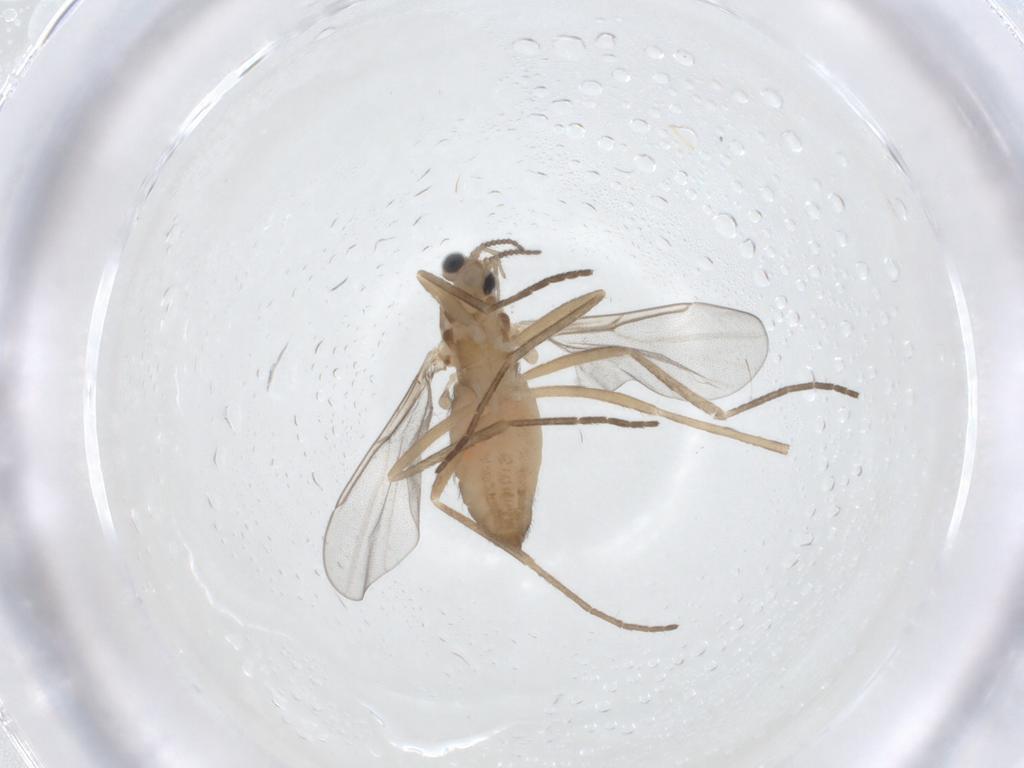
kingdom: Animalia
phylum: Arthropoda
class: Insecta
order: Diptera
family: Cecidomyiidae
